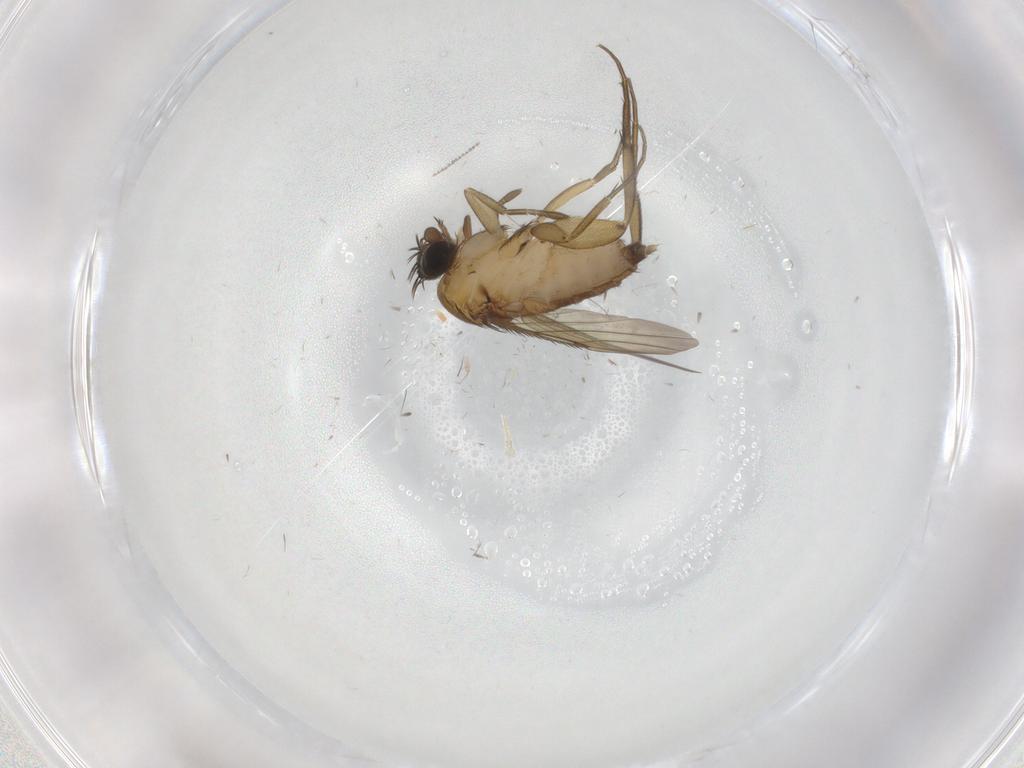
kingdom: Animalia
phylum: Arthropoda
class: Insecta
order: Diptera
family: Phoridae
